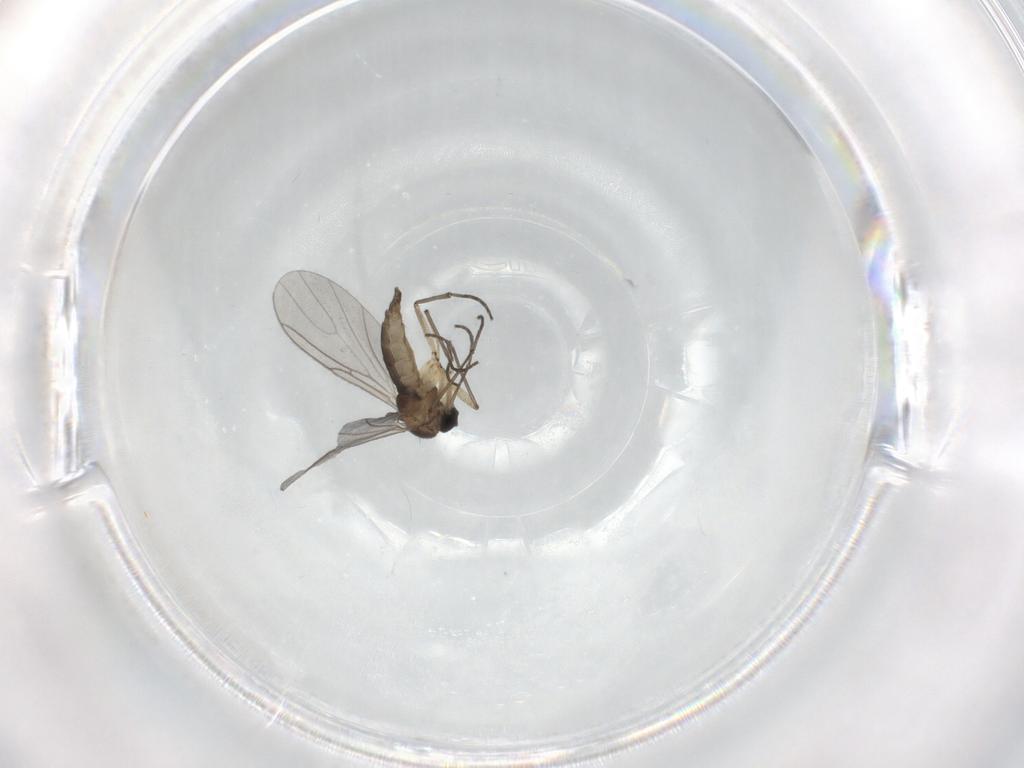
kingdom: Animalia
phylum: Arthropoda
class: Insecta
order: Diptera
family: Sciaridae
